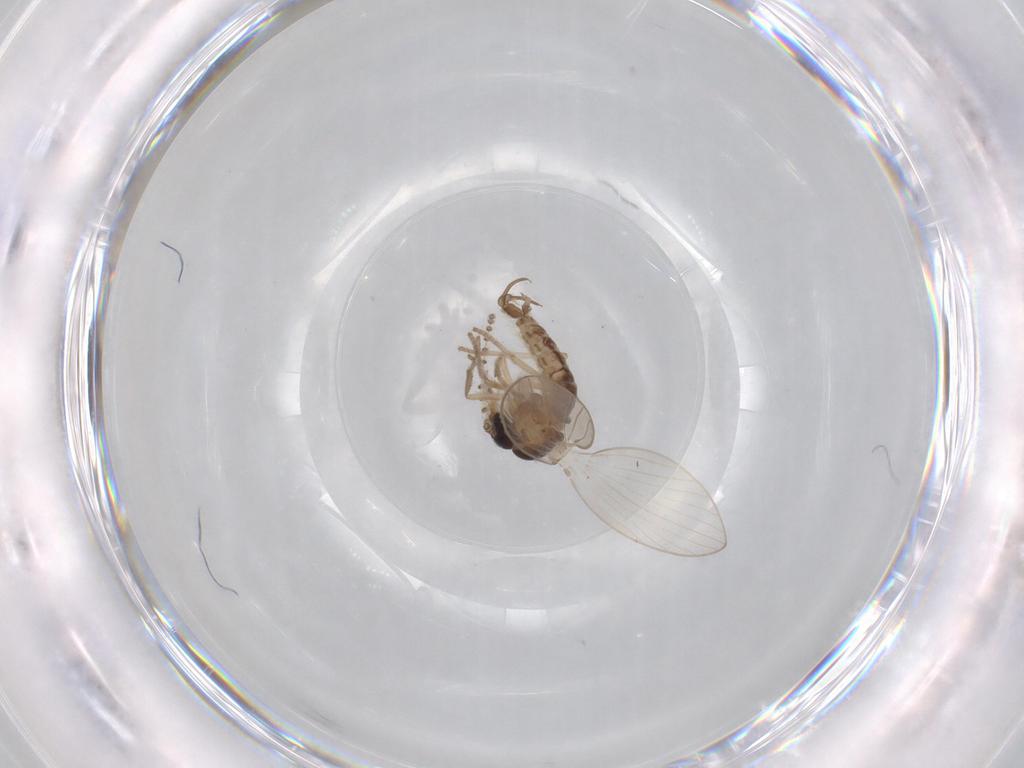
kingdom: Animalia
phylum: Arthropoda
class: Insecta
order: Diptera
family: Psychodidae
